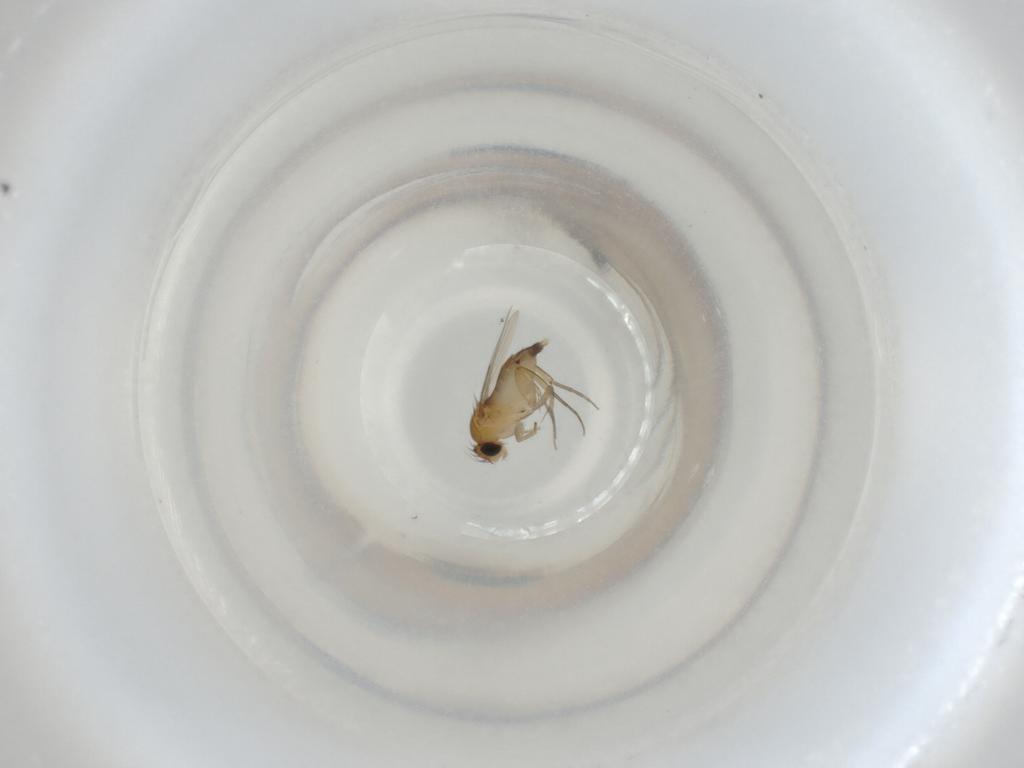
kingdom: Animalia
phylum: Arthropoda
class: Insecta
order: Diptera
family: Phoridae
